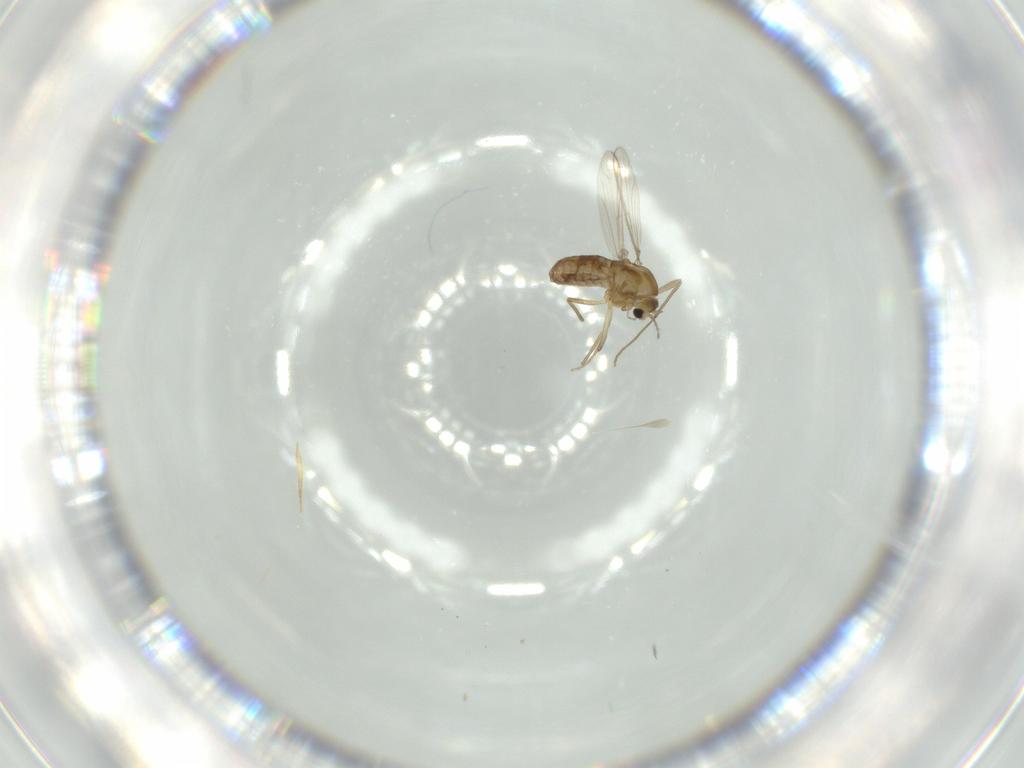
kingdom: Animalia
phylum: Arthropoda
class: Insecta
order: Diptera
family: Chironomidae
